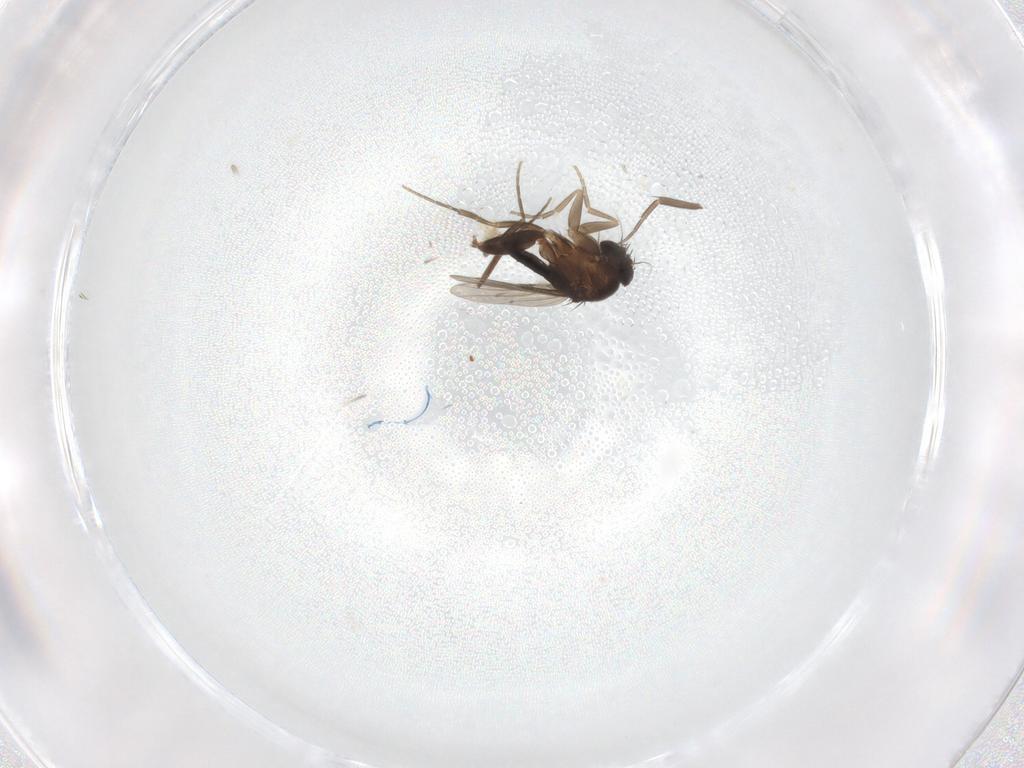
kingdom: Animalia
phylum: Arthropoda
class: Insecta
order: Diptera
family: Phoridae
